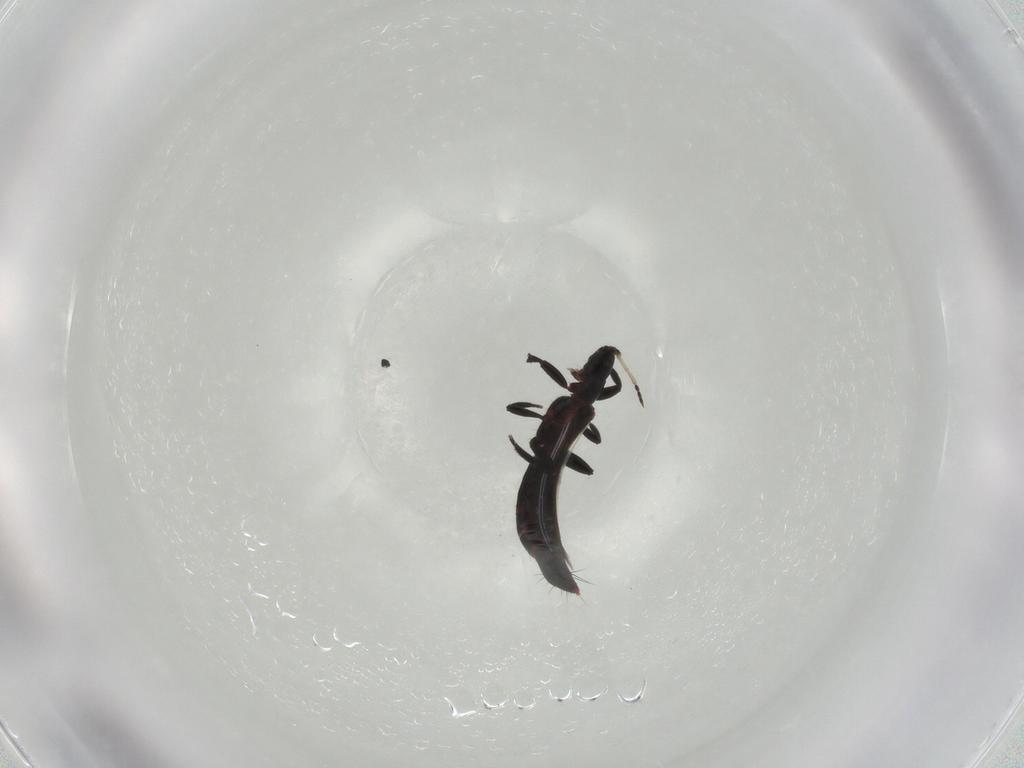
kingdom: Animalia
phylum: Arthropoda
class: Insecta
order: Thysanoptera
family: Aeolothripidae
